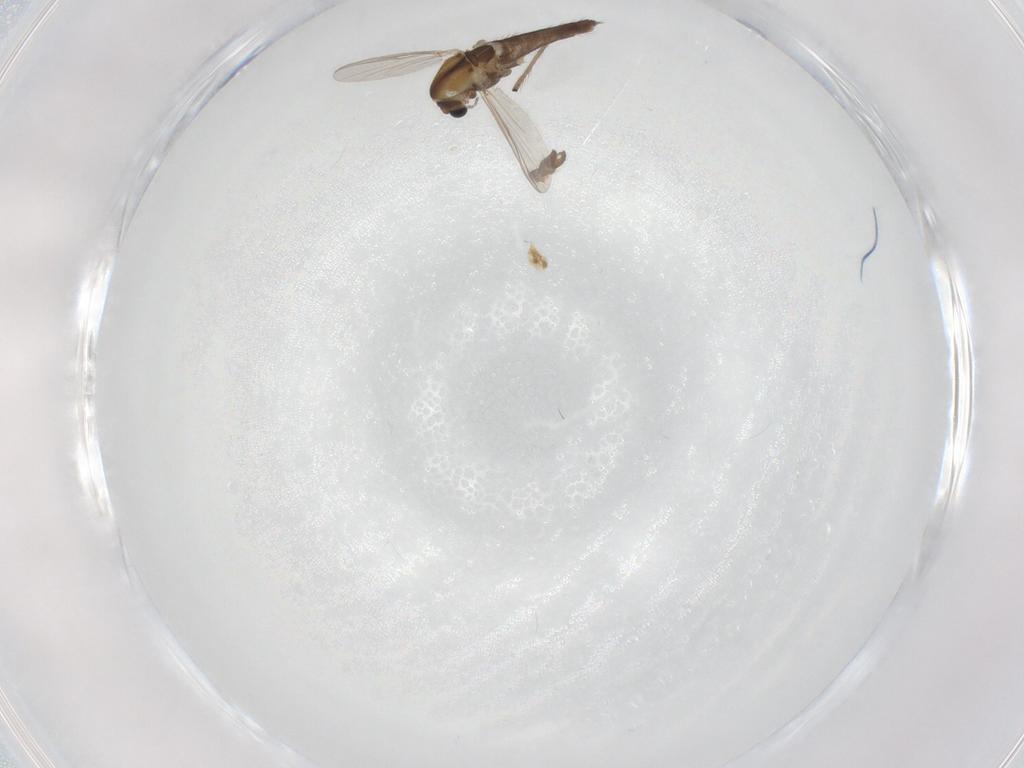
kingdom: Animalia
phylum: Arthropoda
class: Insecta
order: Diptera
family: Chironomidae
